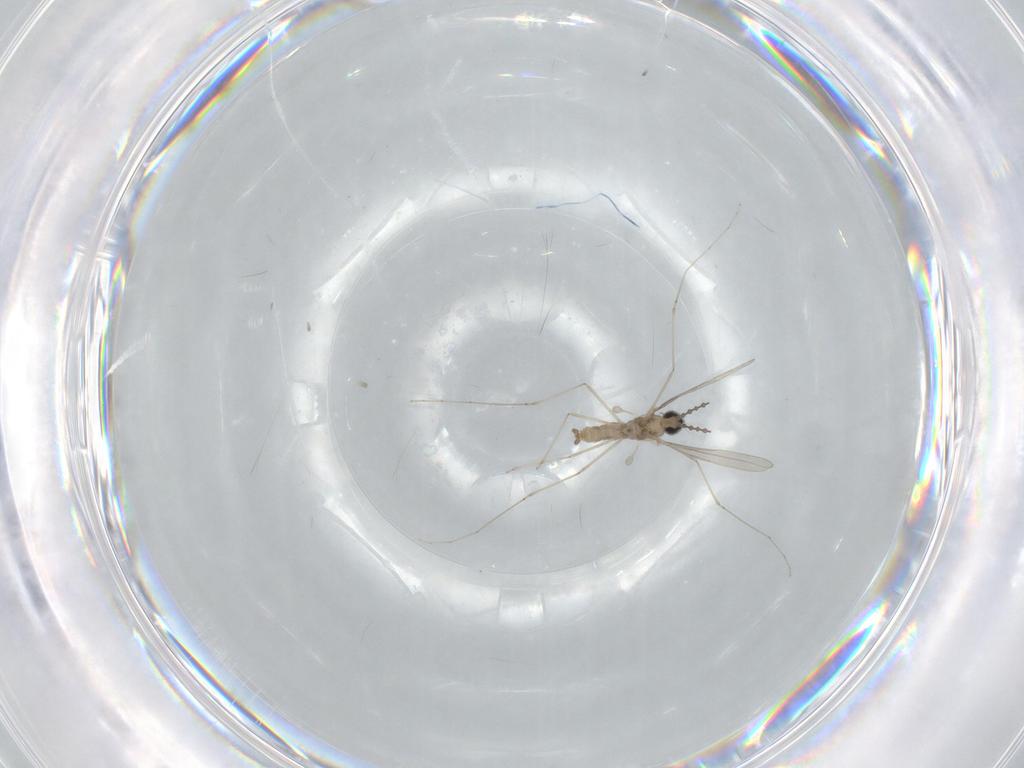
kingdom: Animalia
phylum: Arthropoda
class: Insecta
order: Diptera
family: Cecidomyiidae
